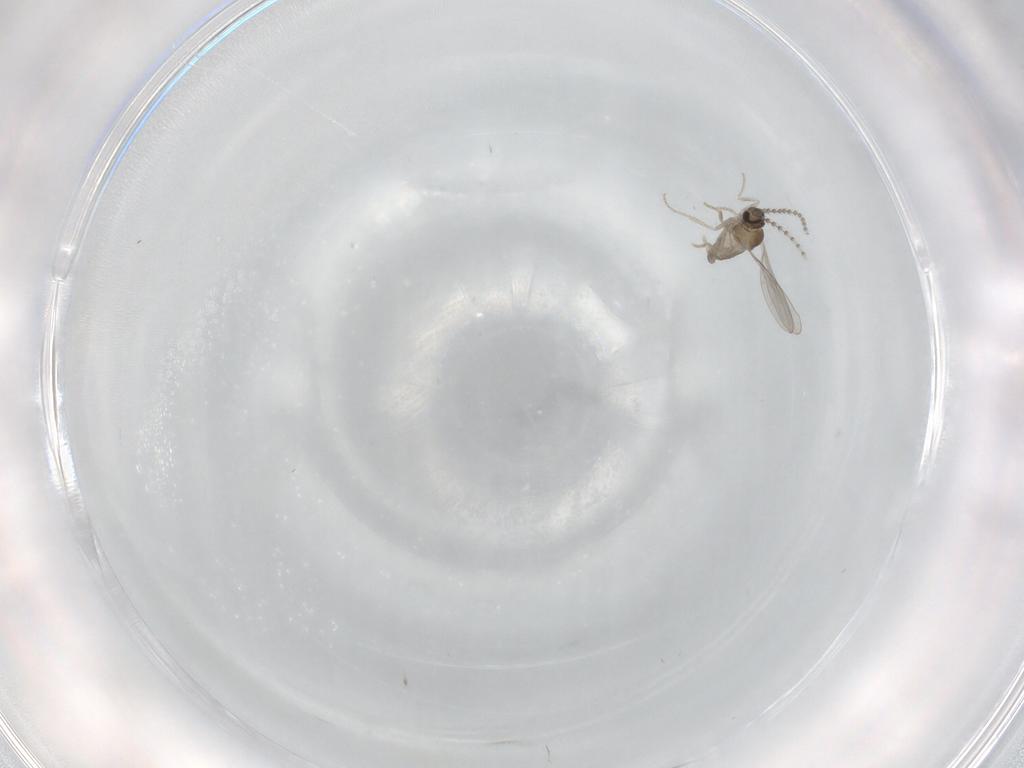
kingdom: Animalia
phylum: Arthropoda
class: Insecta
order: Diptera
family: Cecidomyiidae
